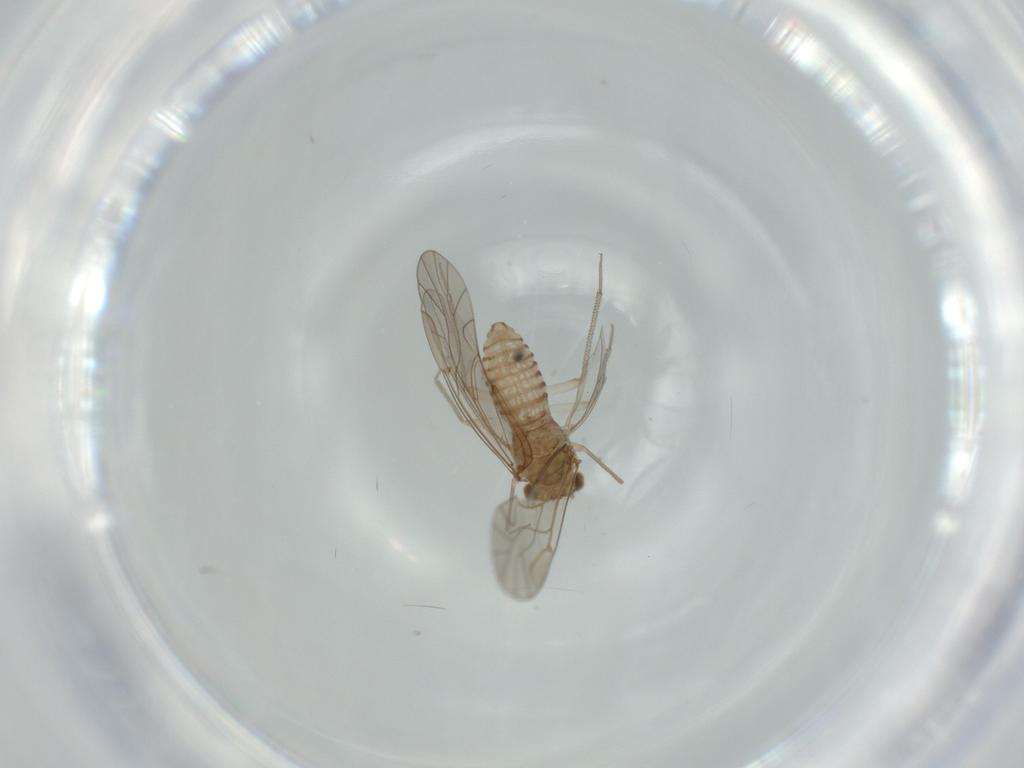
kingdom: Animalia
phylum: Arthropoda
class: Insecta
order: Psocodea
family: Lachesillidae
